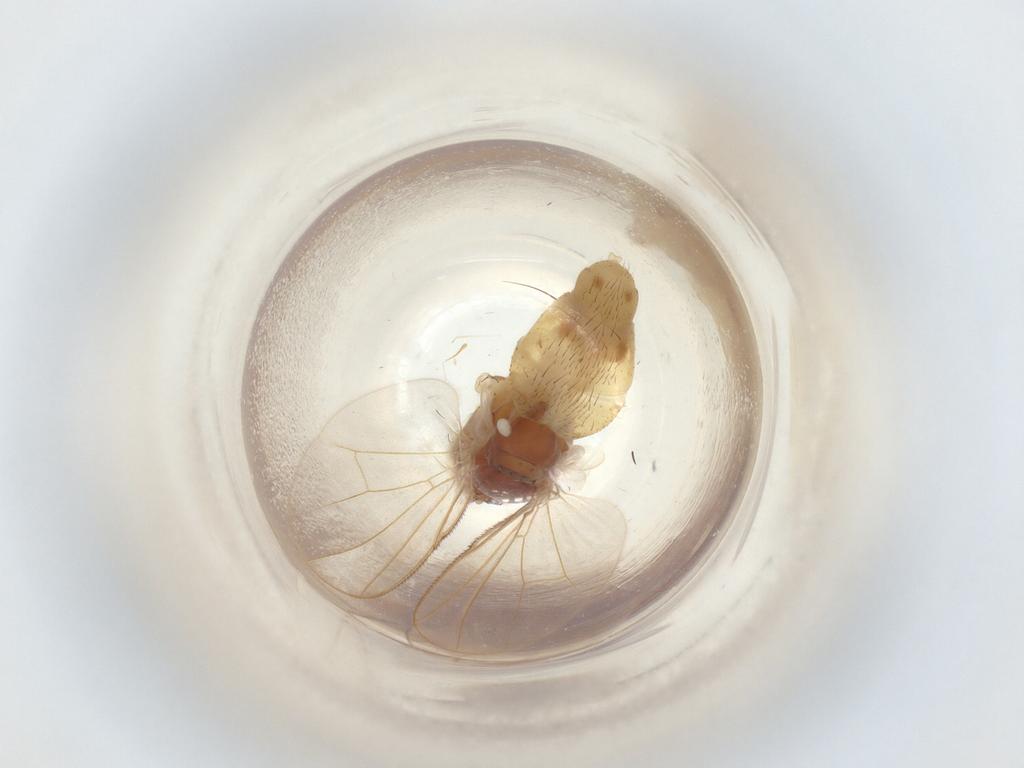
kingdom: Animalia
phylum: Arthropoda
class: Insecta
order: Diptera
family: Muscidae
